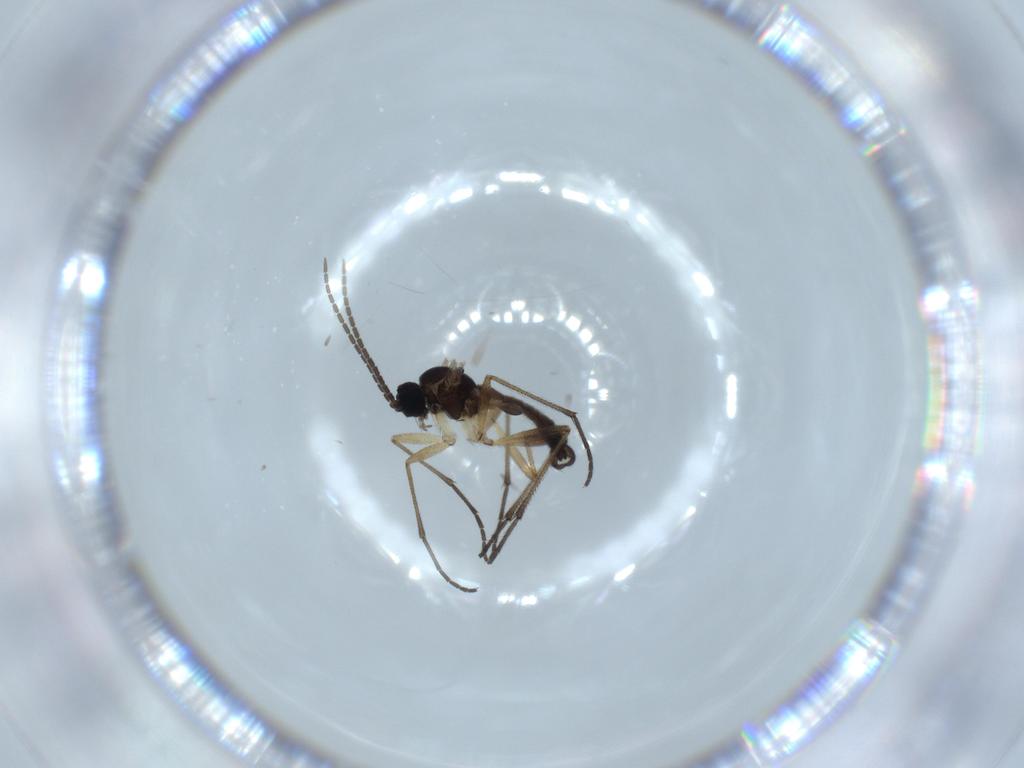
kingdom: Animalia
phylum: Arthropoda
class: Insecta
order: Diptera
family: Sciaridae
